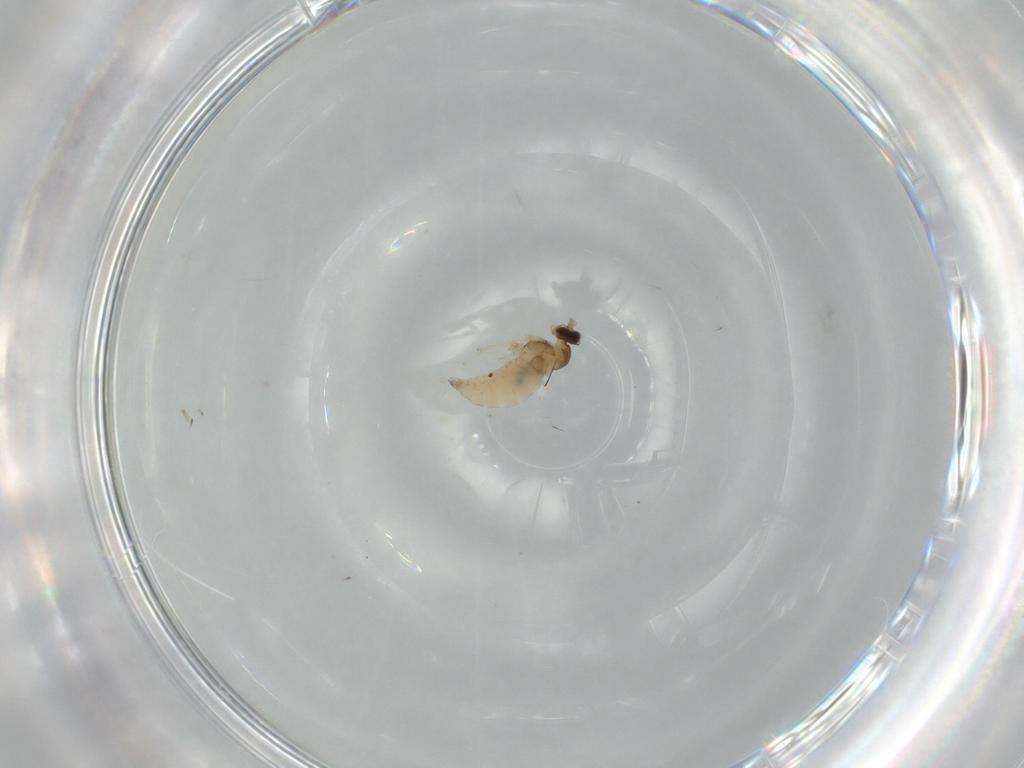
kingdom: Animalia
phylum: Arthropoda
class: Insecta
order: Diptera
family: Cecidomyiidae
